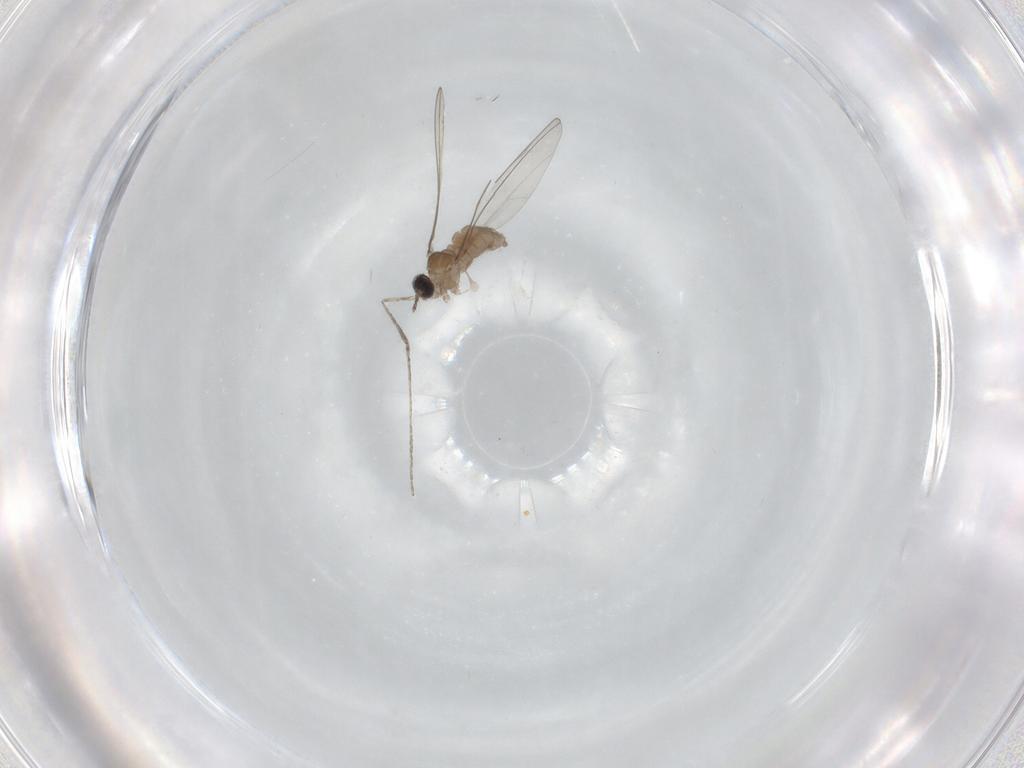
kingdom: Animalia
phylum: Arthropoda
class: Insecta
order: Diptera
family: Cecidomyiidae
